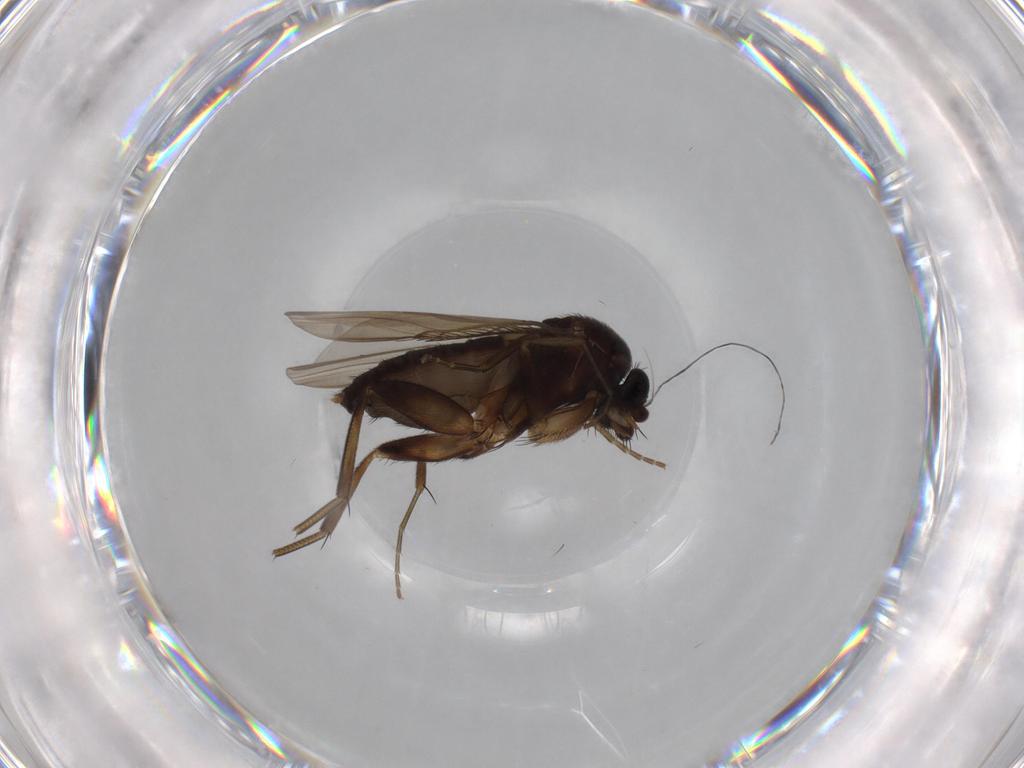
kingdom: Animalia
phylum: Arthropoda
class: Insecta
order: Diptera
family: Phoridae
